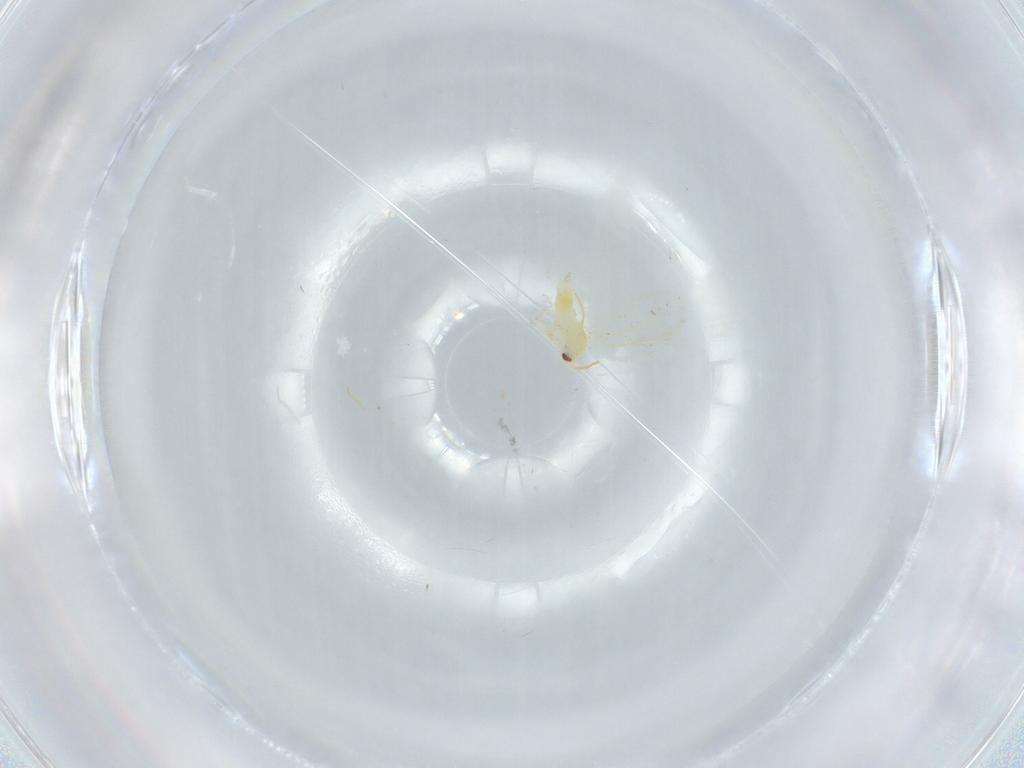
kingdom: Animalia
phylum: Arthropoda
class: Insecta
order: Hemiptera
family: Aleyrodidae
